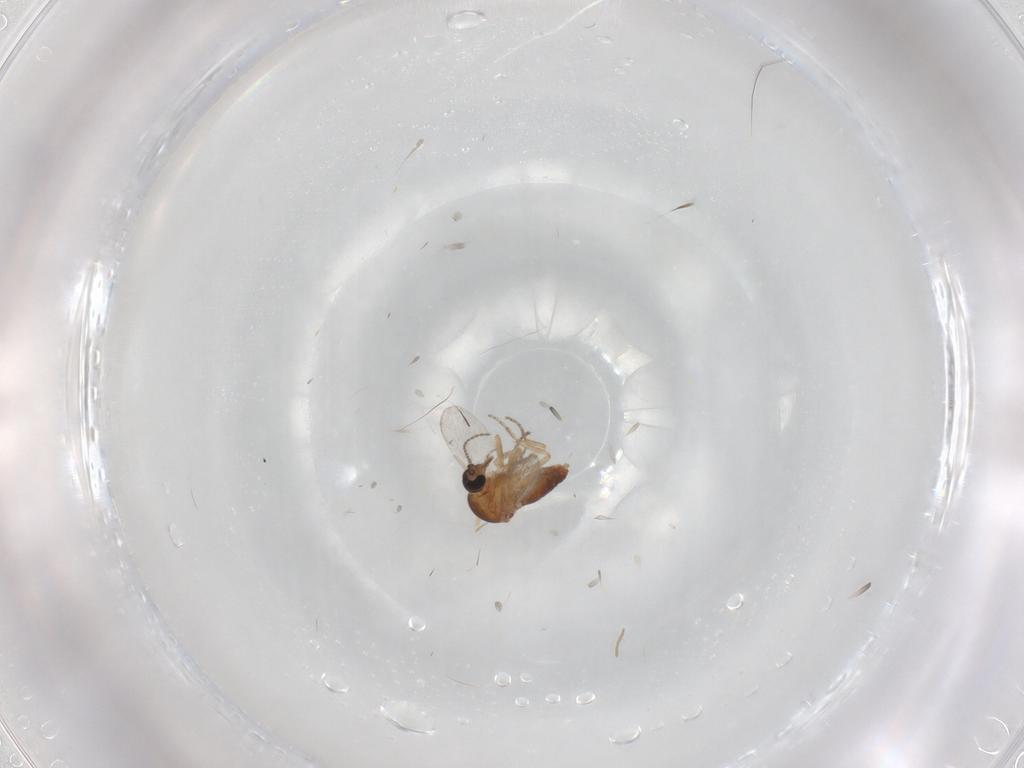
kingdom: Animalia
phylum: Arthropoda
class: Insecta
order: Diptera
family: Ceratopogonidae
